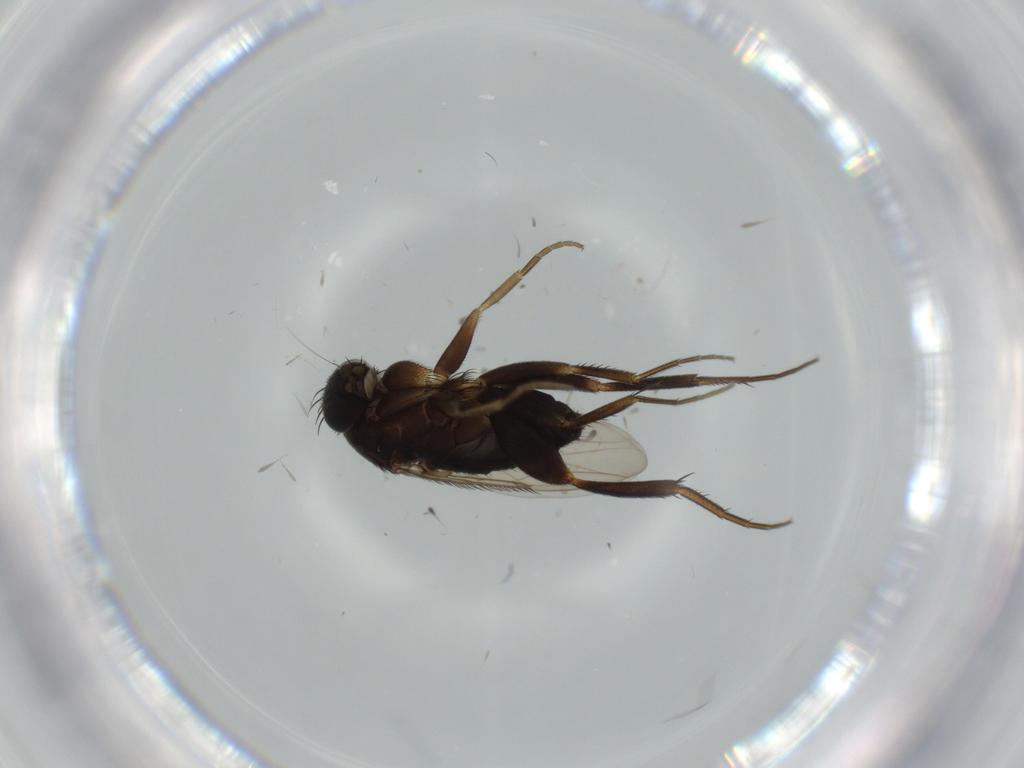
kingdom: Animalia
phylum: Arthropoda
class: Insecta
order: Diptera
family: Phoridae
